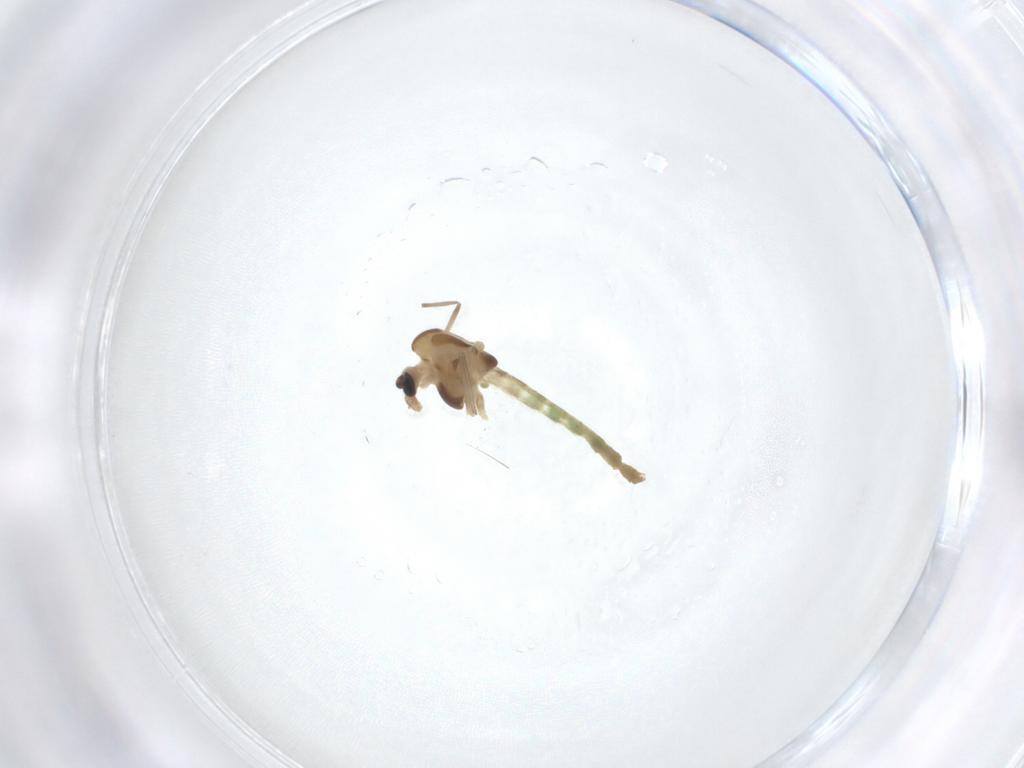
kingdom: Animalia
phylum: Arthropoda
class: Insecta
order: Diptera
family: Chironomidae
